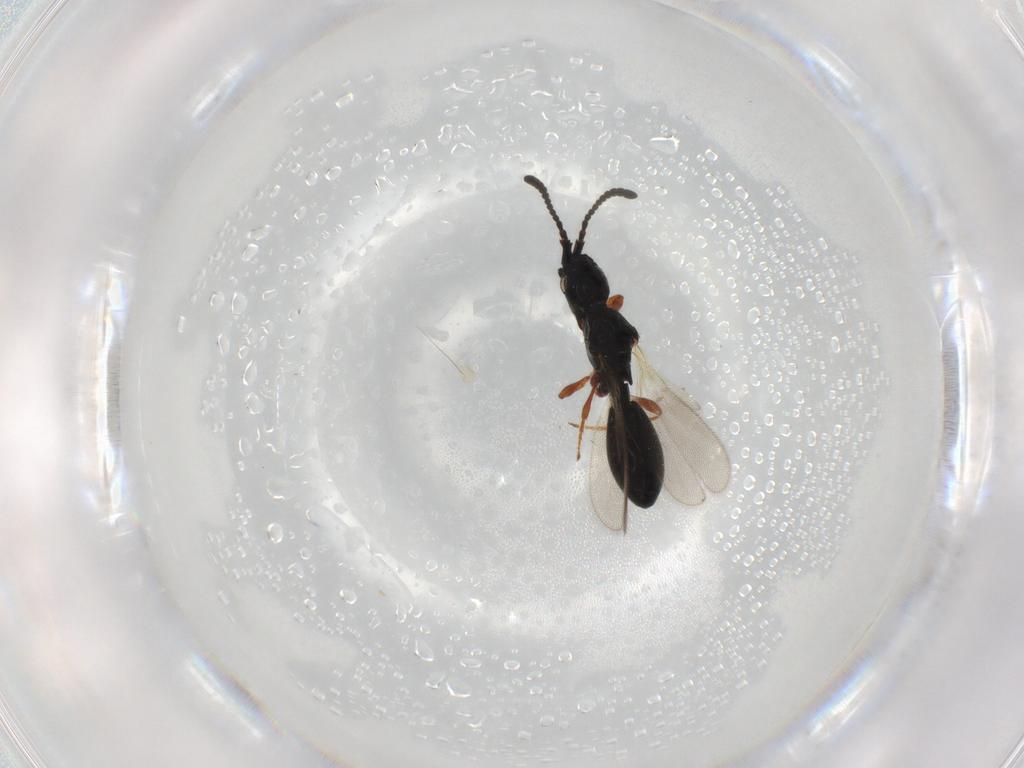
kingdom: Animalia
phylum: Arthropoda
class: Insecta
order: Hymenoptera
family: Diapriidae
